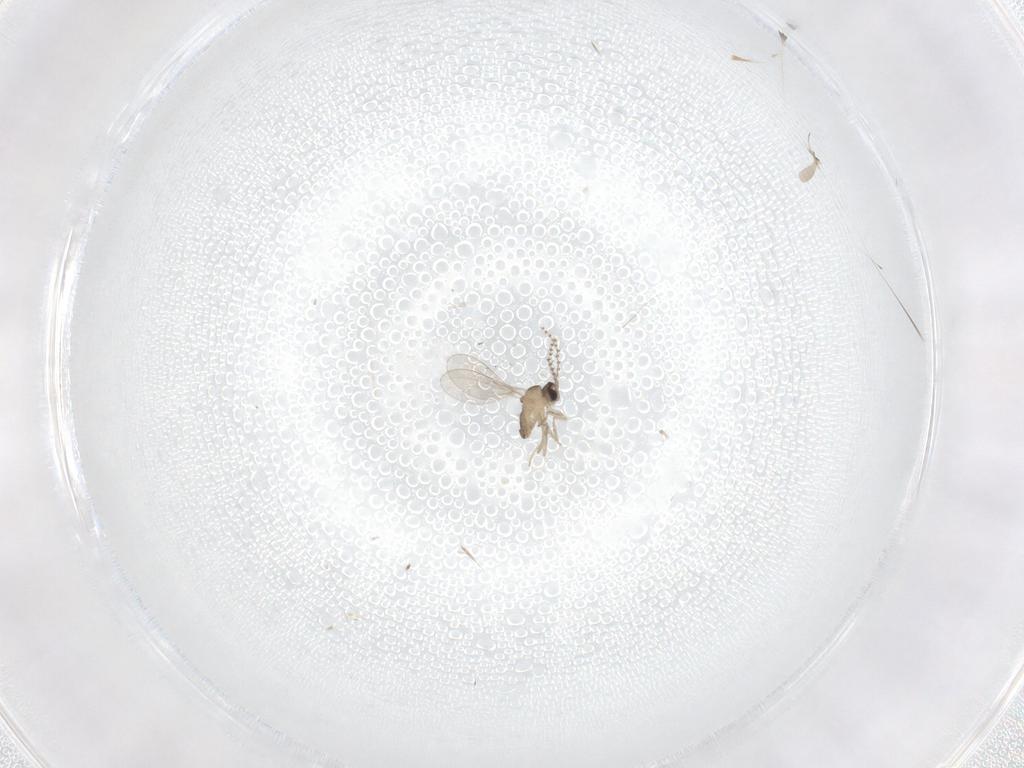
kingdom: Animalia
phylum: Arthropoda
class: Insecta
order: Diptera
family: Cecidomyiidae
